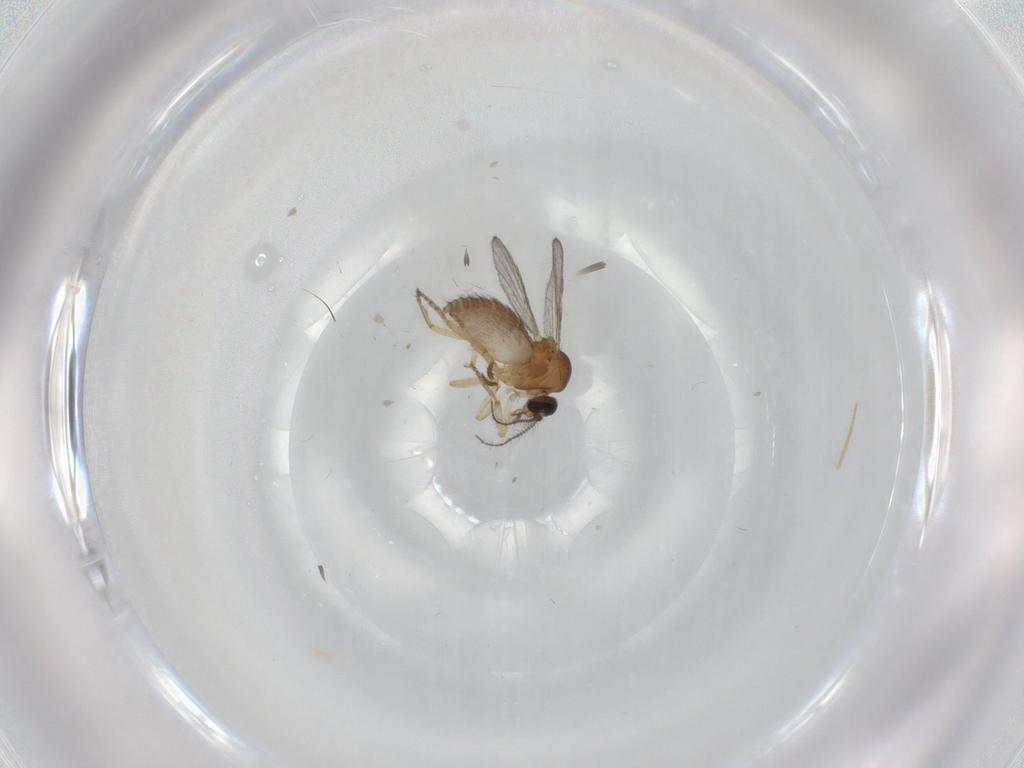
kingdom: Animalia
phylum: Arthropoda
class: Insecta
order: Diptera
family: Ceratopogonidae
